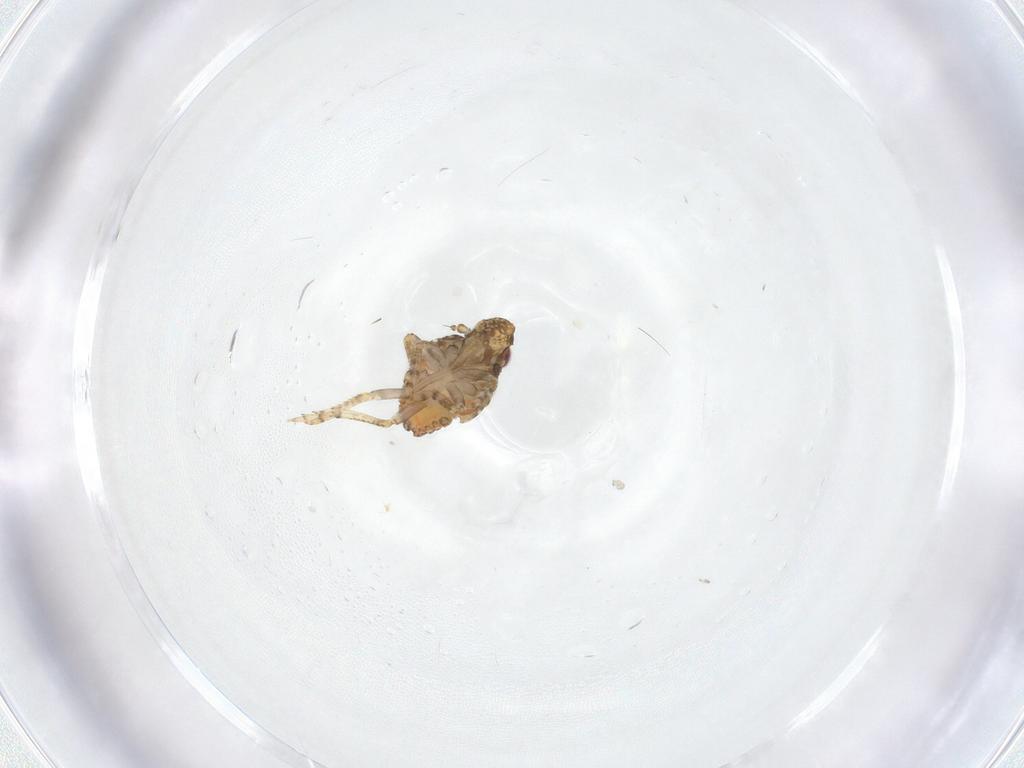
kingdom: Animalia
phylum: Arthropoda
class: Insecta
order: Hemiptera
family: Nogodinidae
